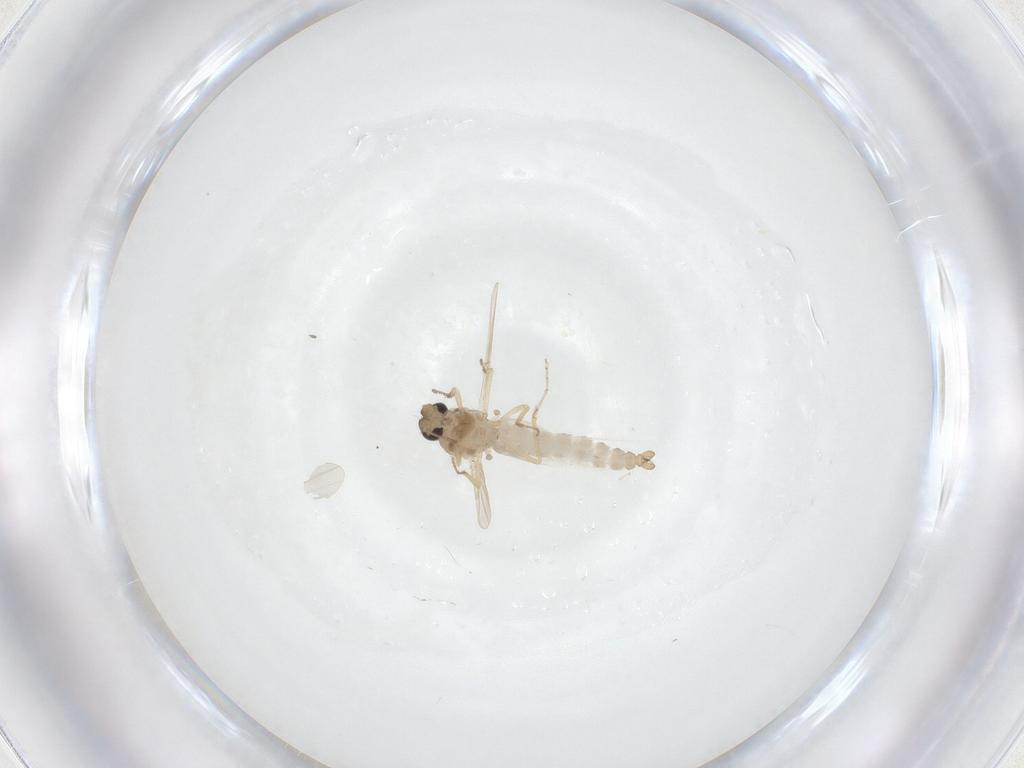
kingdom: Animalia
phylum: Arthropoda
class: Insecta
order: Diptera
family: Ceratopogonidae
